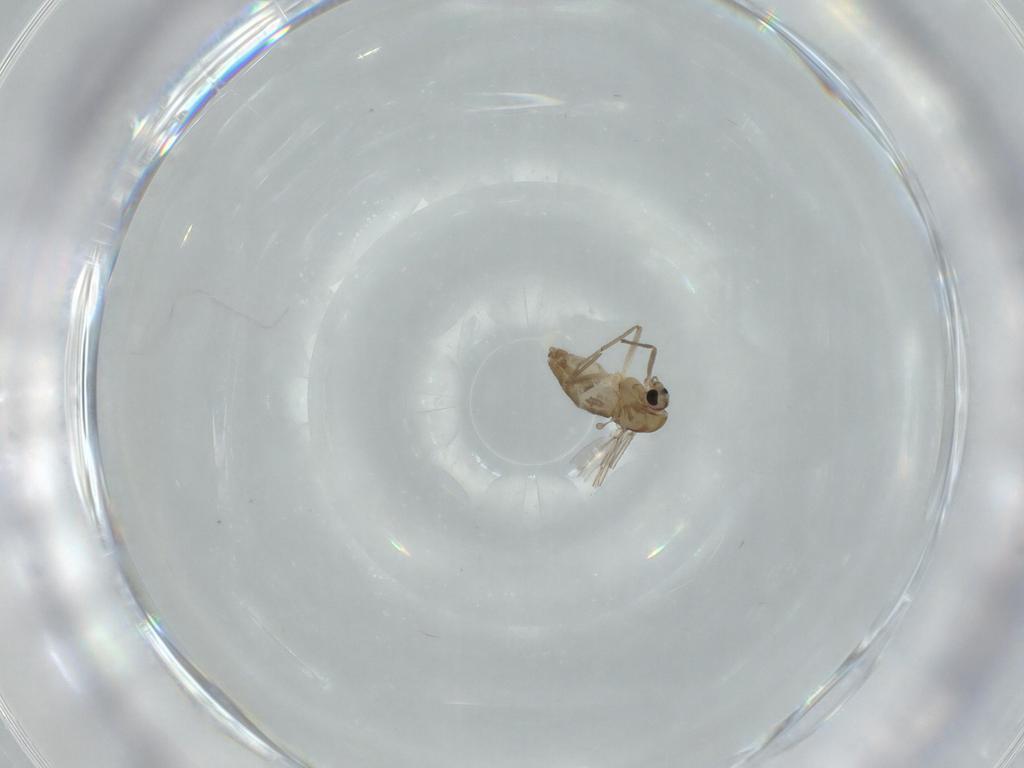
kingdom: Animalia
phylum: Arthropoda
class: Insecta
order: Diptera
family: Chironomidae
